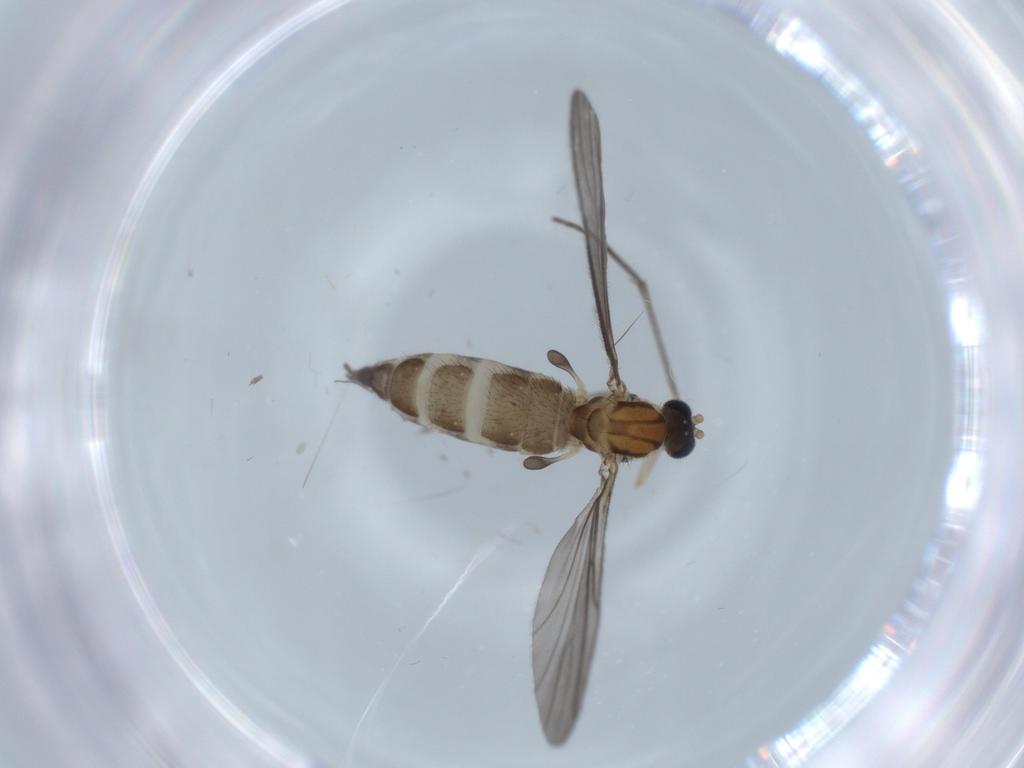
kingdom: Animalia
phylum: Arthropoda
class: Insecta
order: Diptera
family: Sciaridae
